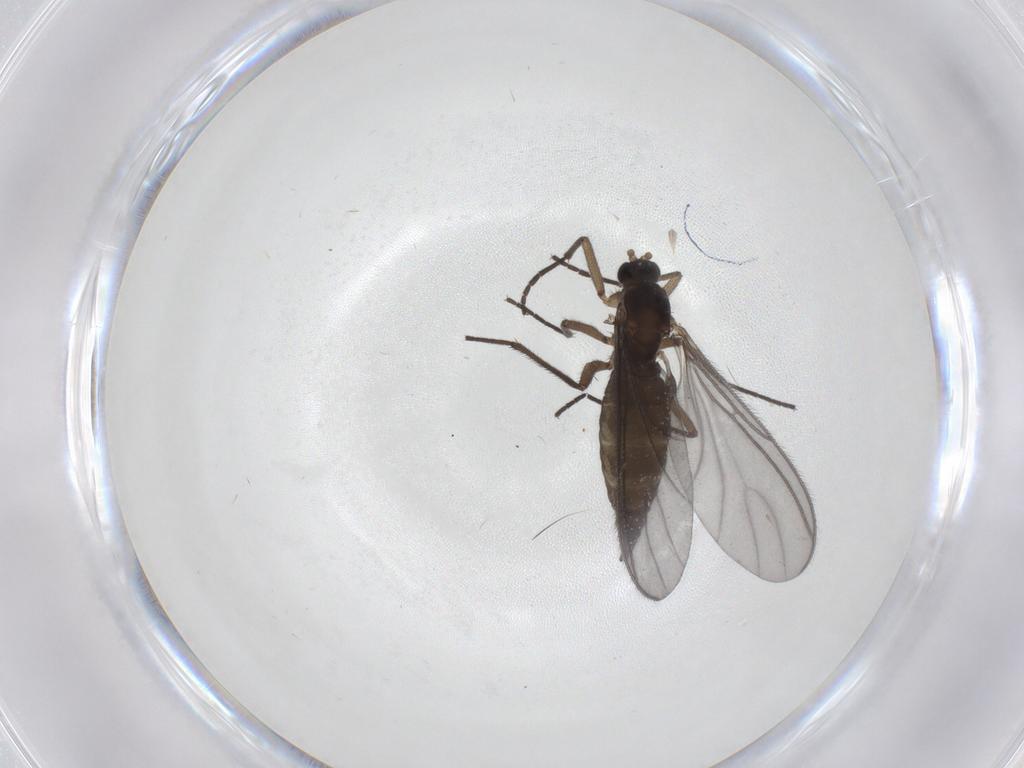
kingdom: Animalia
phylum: Arthropoda
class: Insecta
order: Diptera
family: Sciaridae
